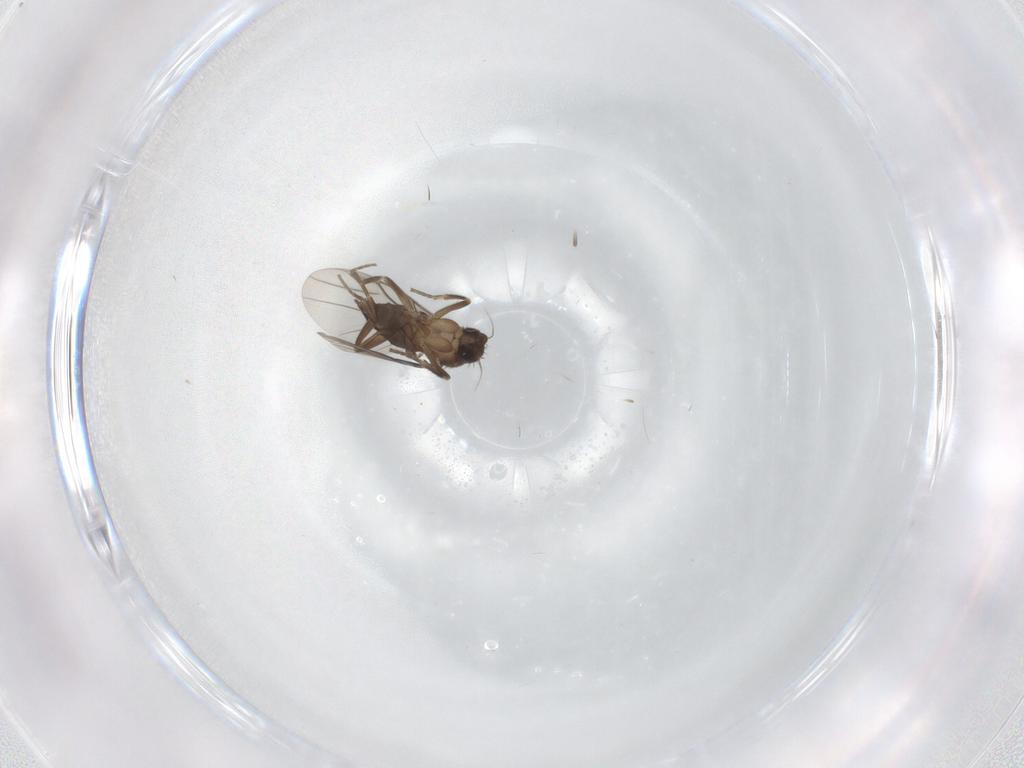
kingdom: Animalia
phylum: Arthropoda
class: Insecta
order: Diptera
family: Phoridae
